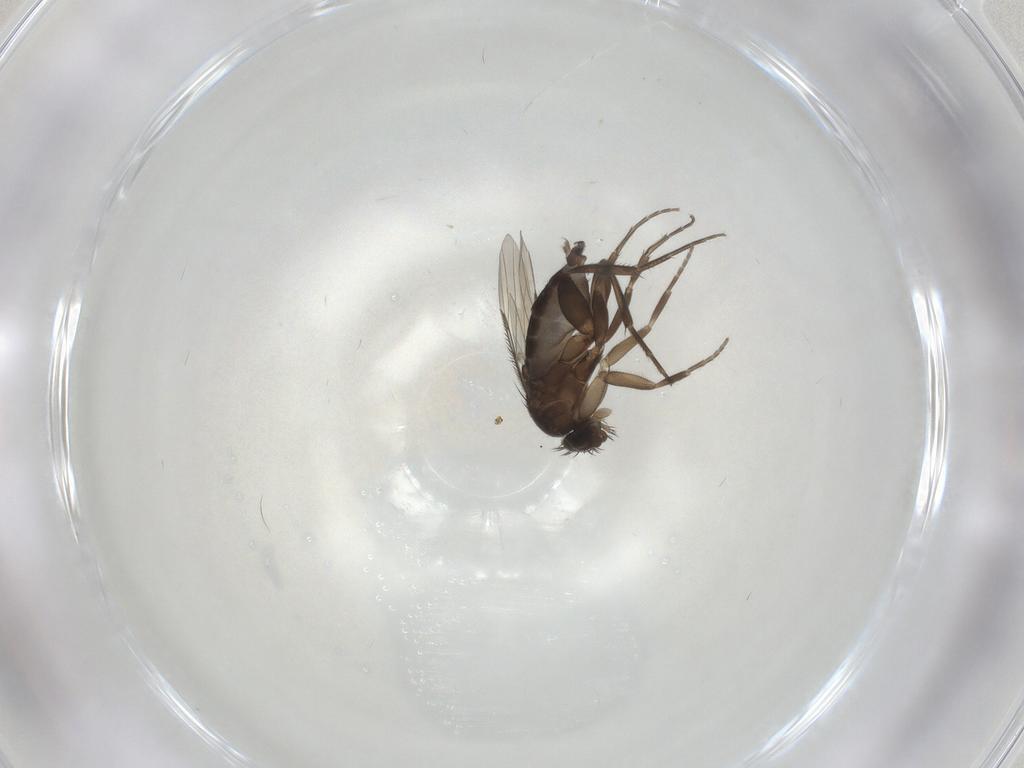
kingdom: Animalia
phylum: Arthropoda
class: Insecta
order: Diptera
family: Phoridae
